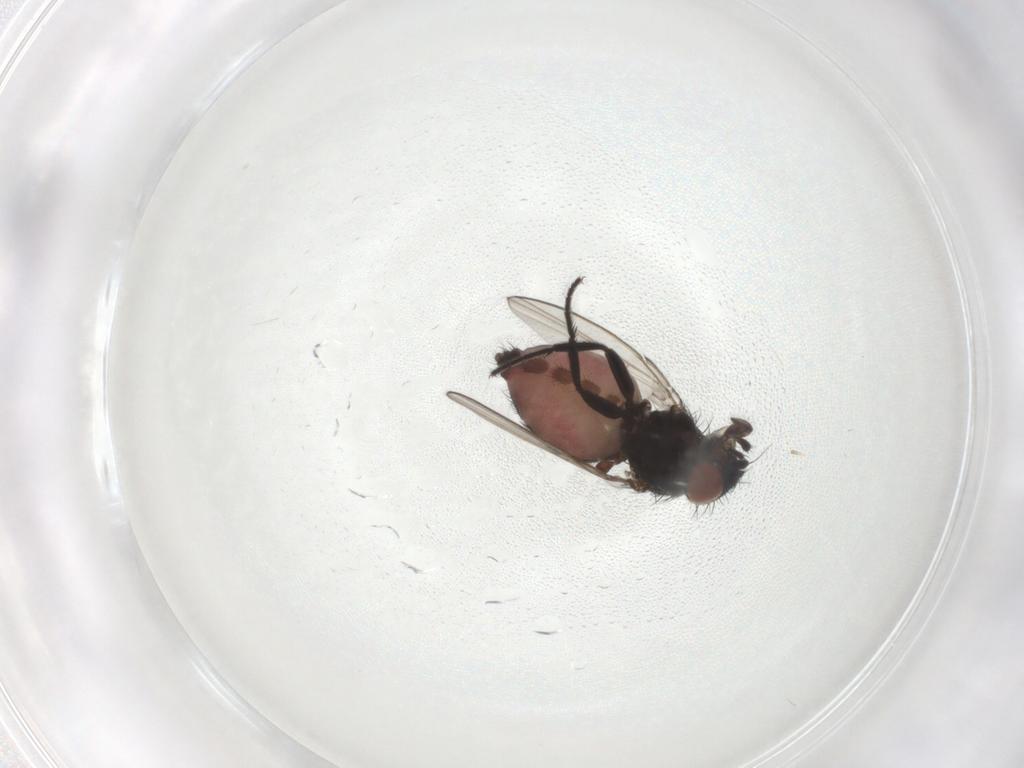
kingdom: Animalia
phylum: Arthropoda
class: Insecta
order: Diptera
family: Milichiidae
